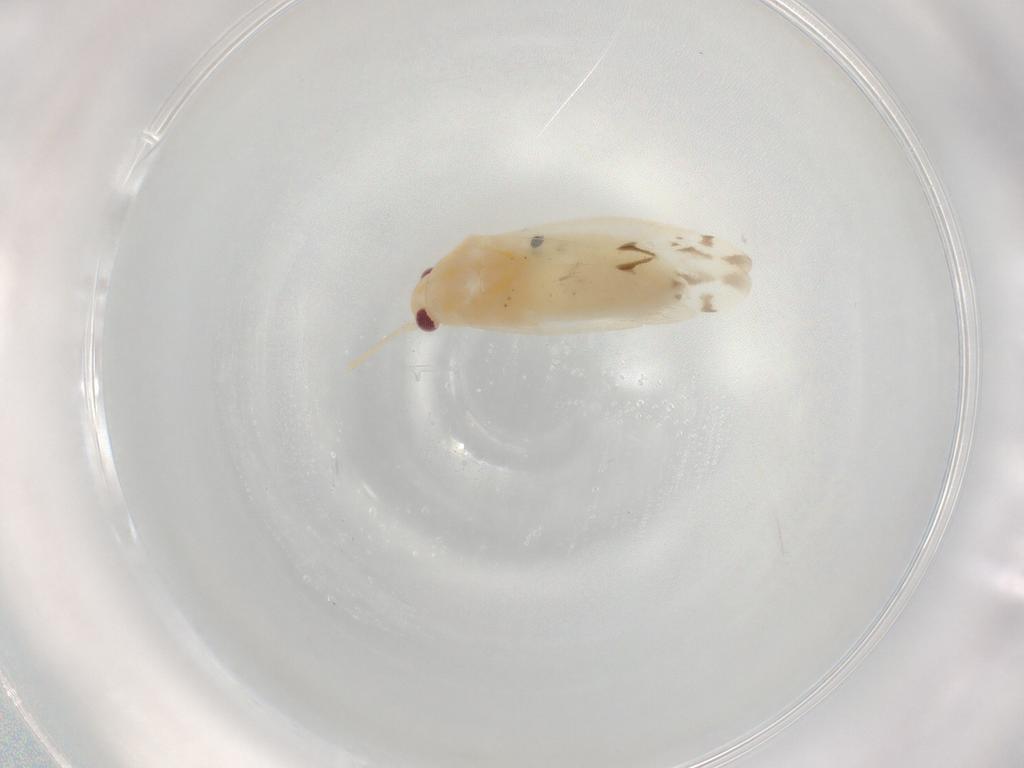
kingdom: Animalia
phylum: Arthropoda
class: Insecta
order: Hemiptera
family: Miridae
